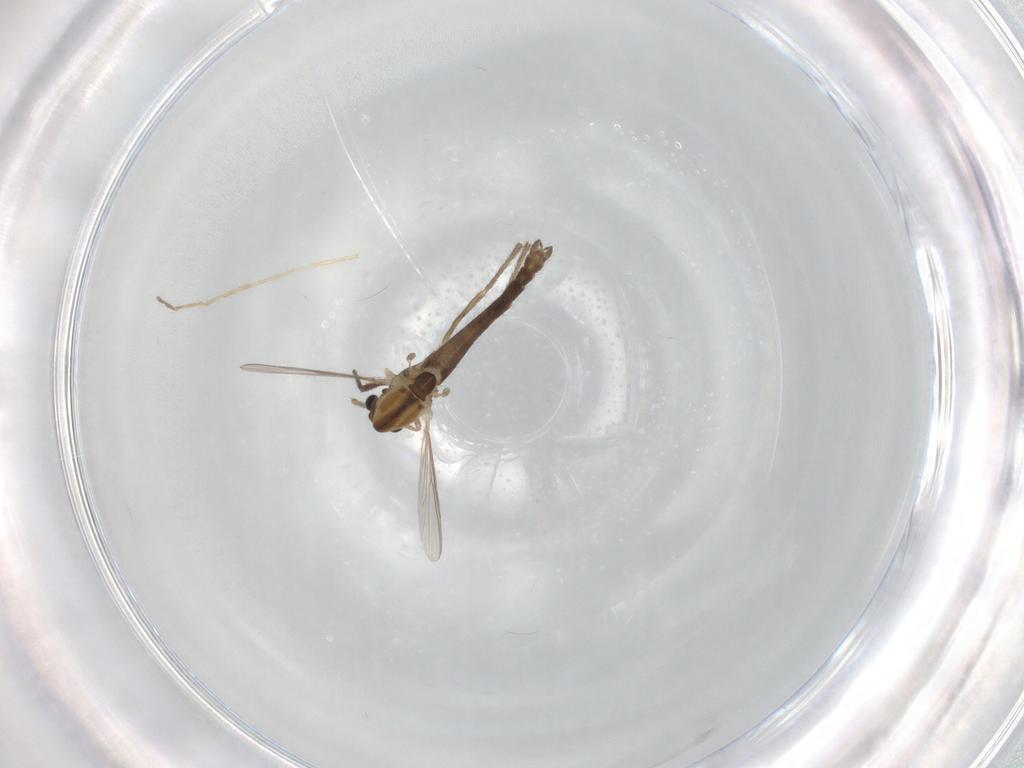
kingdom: Animalia
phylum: Arthropoda
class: Insecta
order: Diptera
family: Chironomidae
